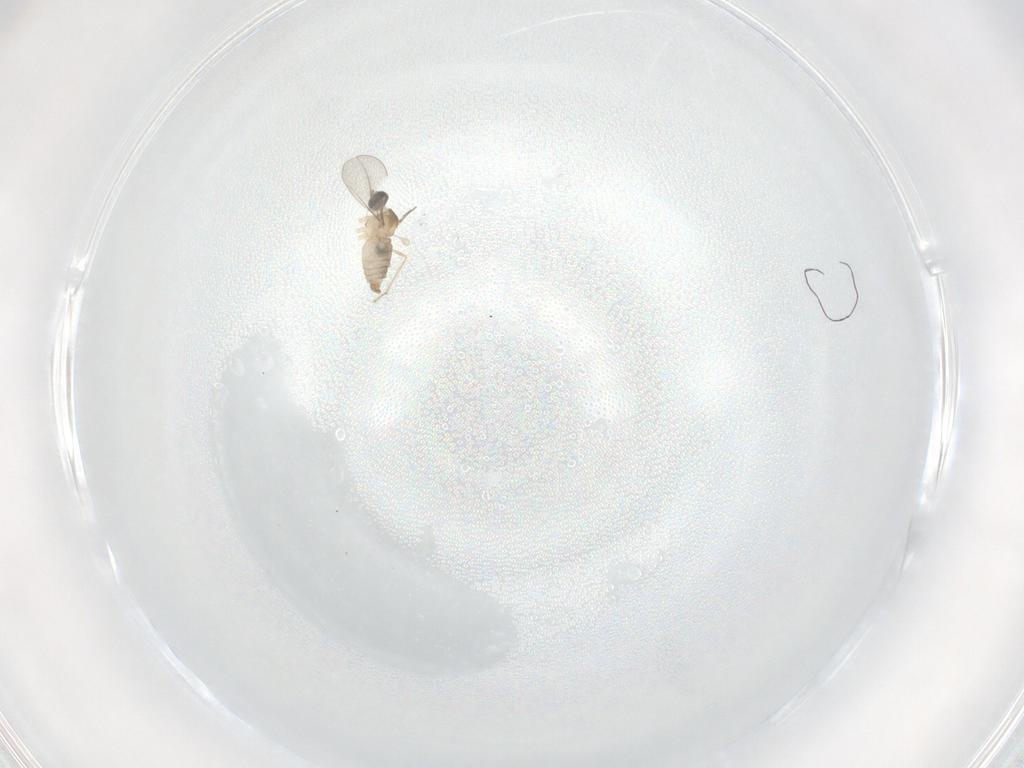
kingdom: Animalia
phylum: Arthropoda
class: Insecta
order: Diptera
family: Cecidomyiidae
